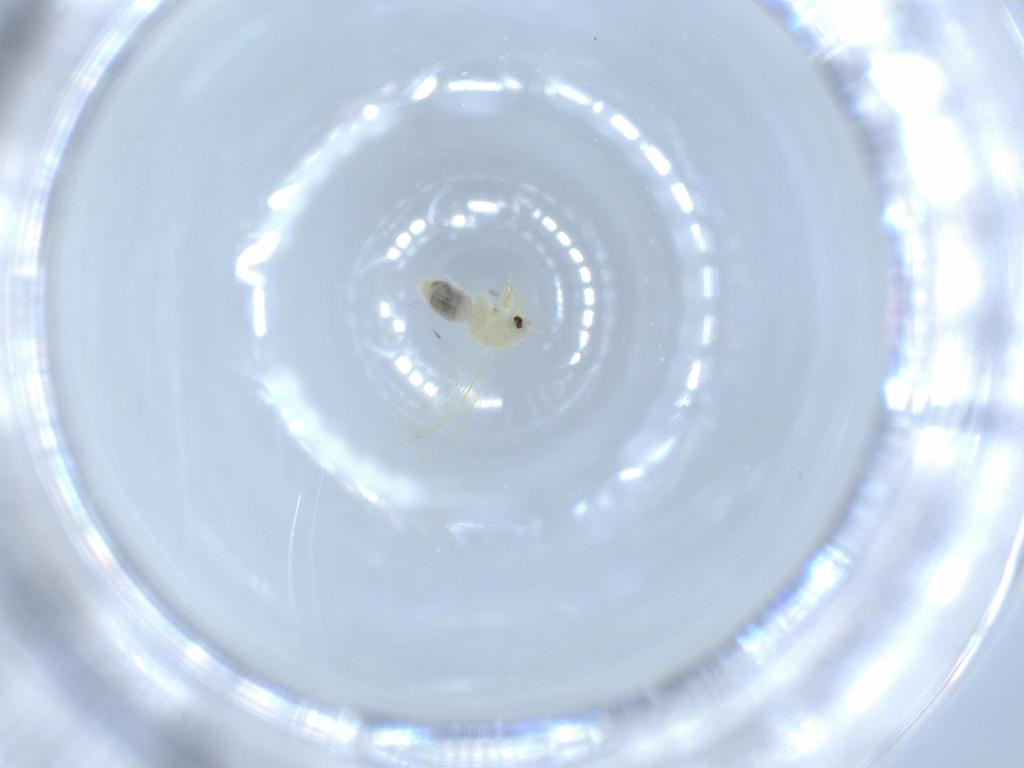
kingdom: Animalia
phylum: Arthropoda
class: Insecta
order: Hemiptera
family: Aleyrodidae
